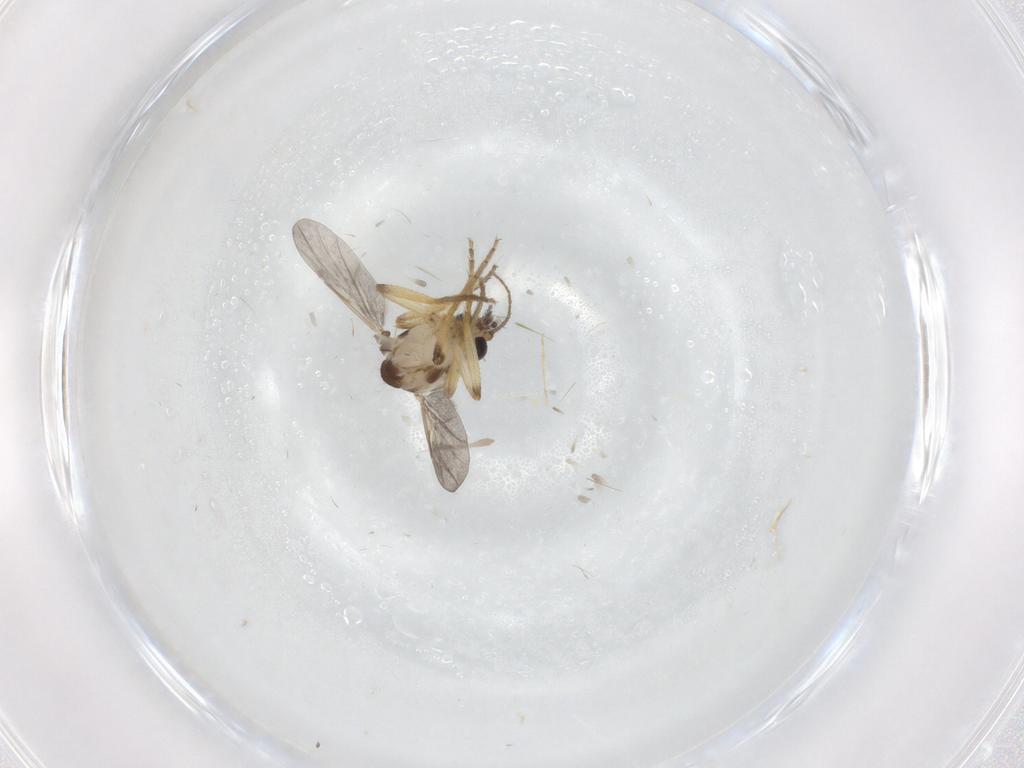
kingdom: Animalia
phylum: Arthropoda
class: Insecta
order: Diptera
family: Ceratopogonidae
